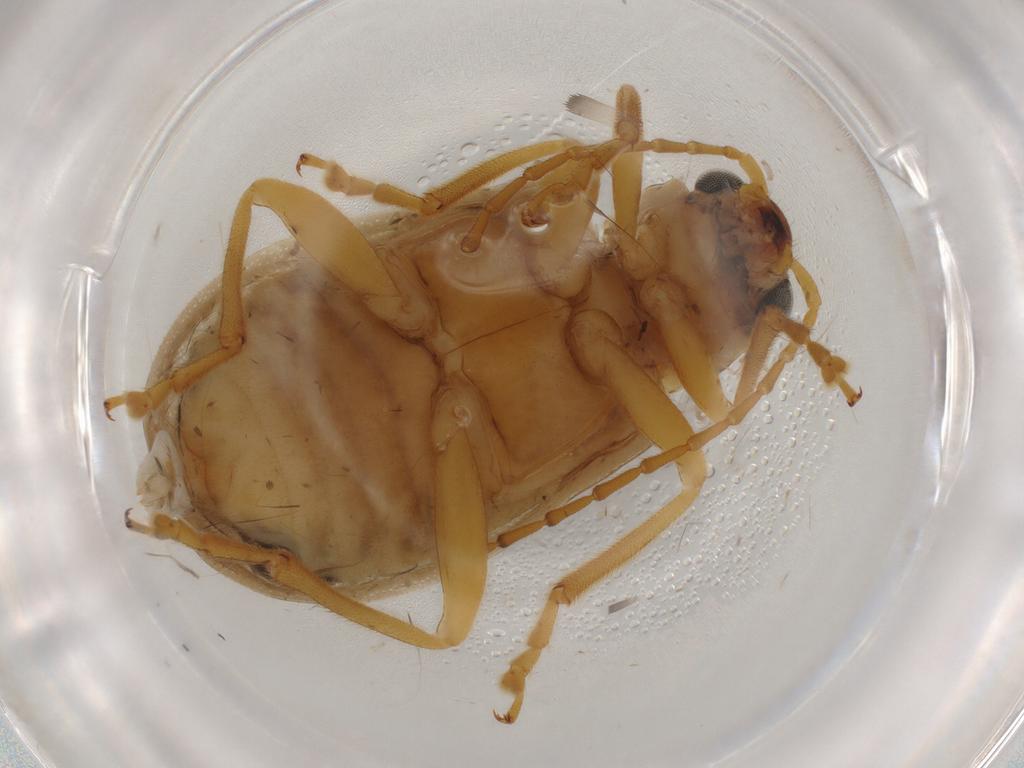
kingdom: Animalia
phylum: Arthropoda
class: Insecta
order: Coleoptera
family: Chrysomelidae
